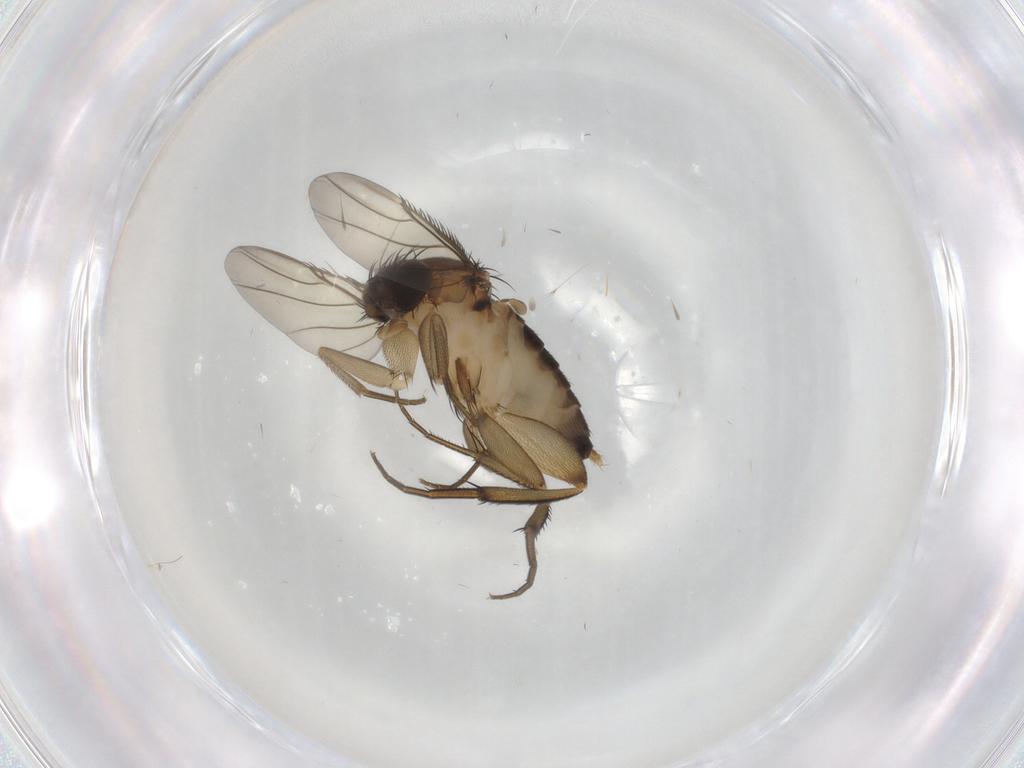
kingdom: Animalia
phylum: Arthropoda
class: Insecta
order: Diptera
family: Phoridae
